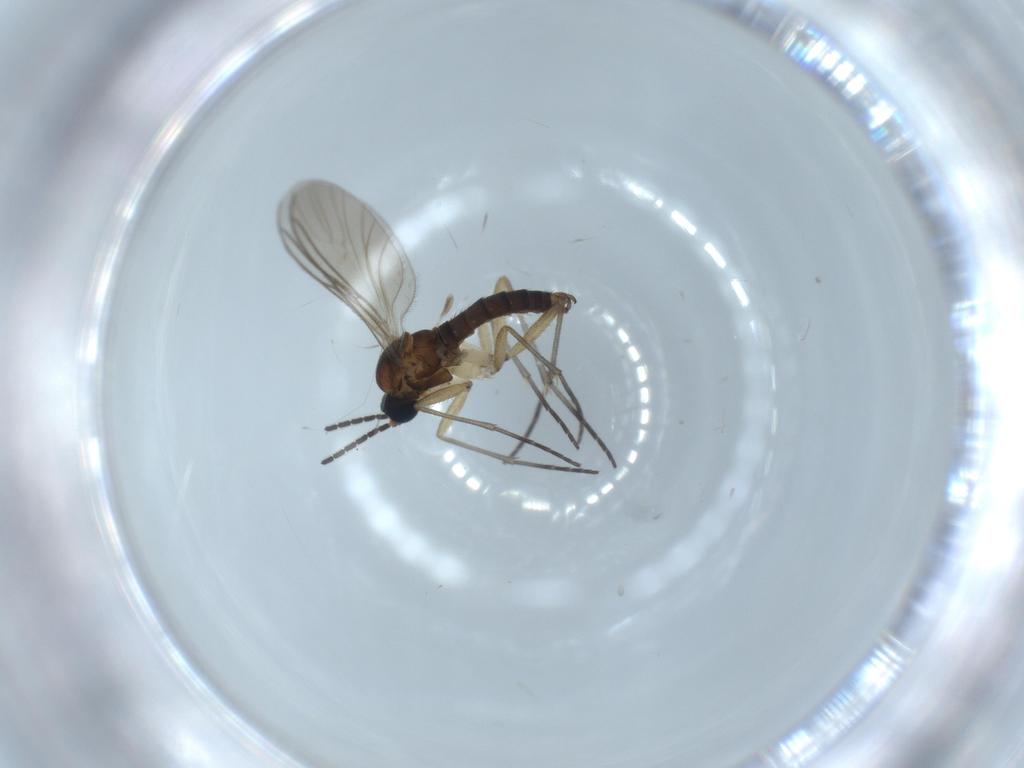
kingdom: Animalia
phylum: Arthropoda
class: Insecta
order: Diptera
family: Sciaridae
